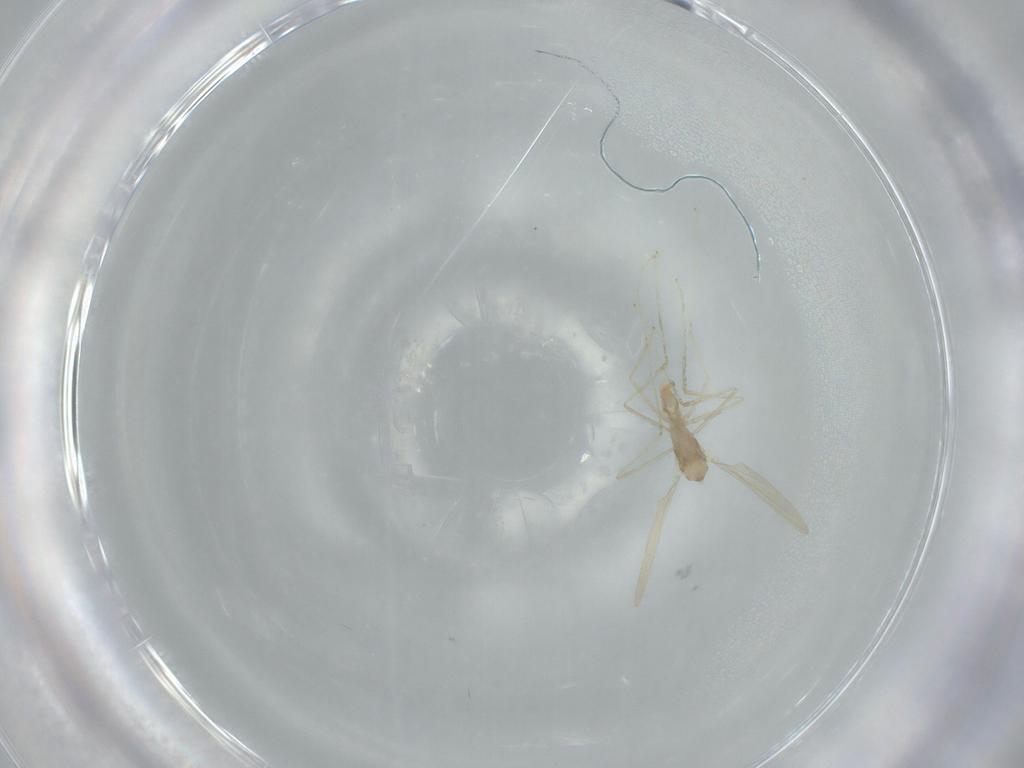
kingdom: Animalia
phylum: Arthropoda
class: Insecta
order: Diptera
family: Cecidomyiidae
